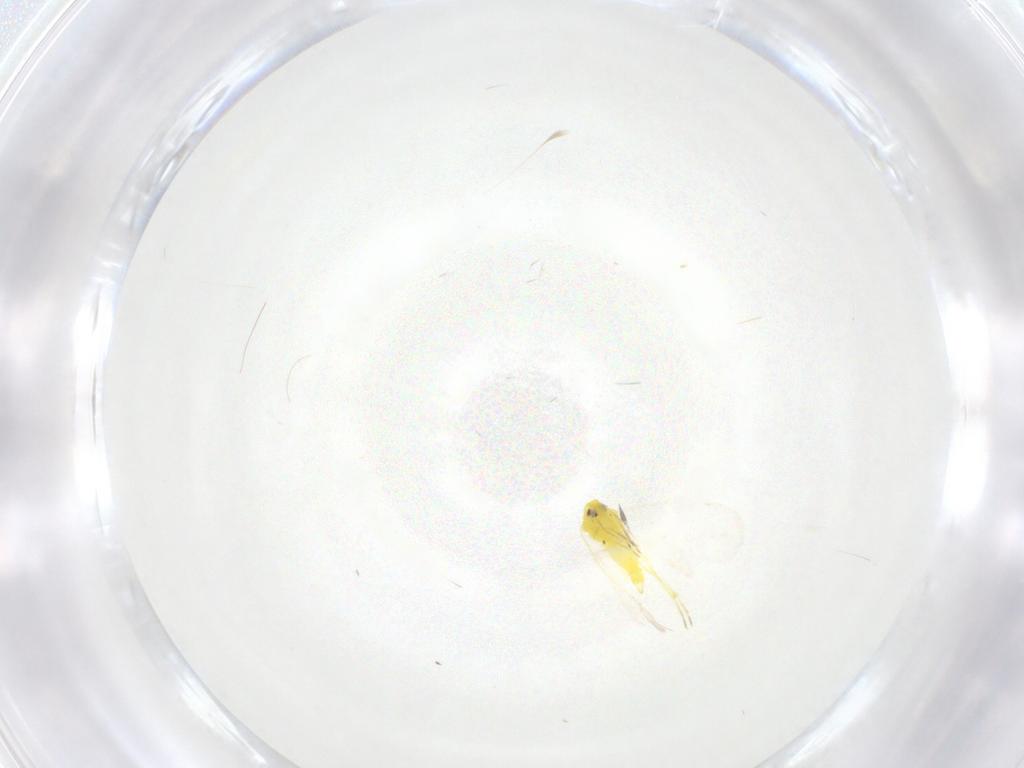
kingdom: Animalia
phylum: Arthropoda
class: Insecta
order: Hemiptera
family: Aleyrodidae
